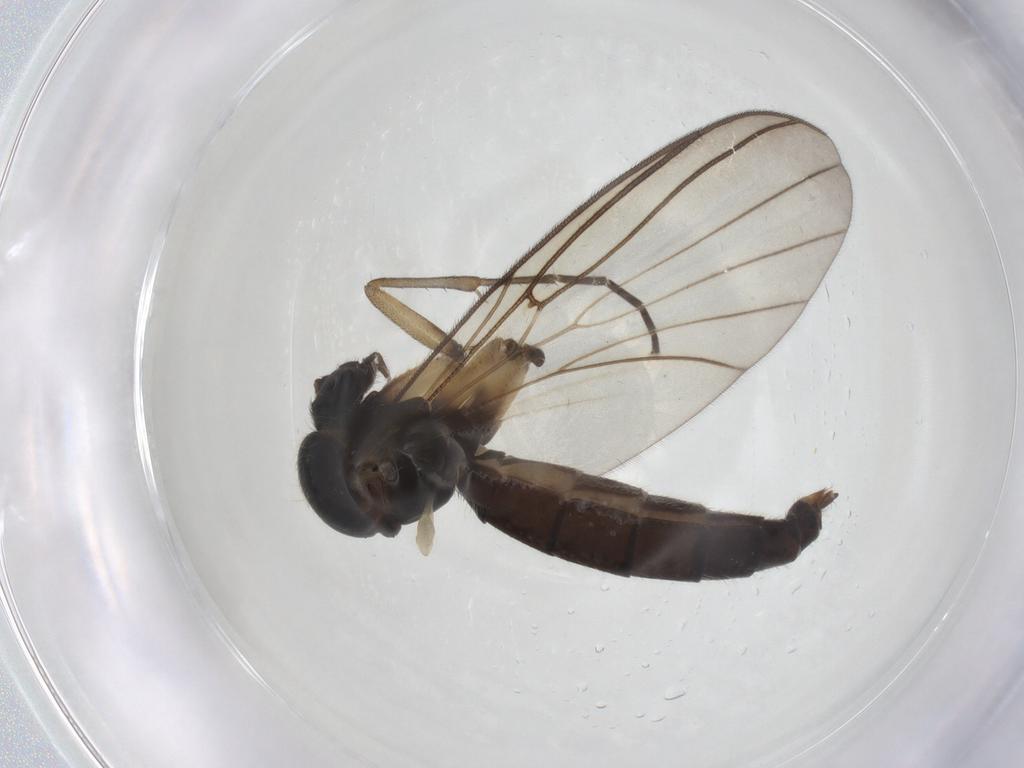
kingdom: Animalia
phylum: Arthropoda
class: Insecta
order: Diptera
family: Mycetophilidae
